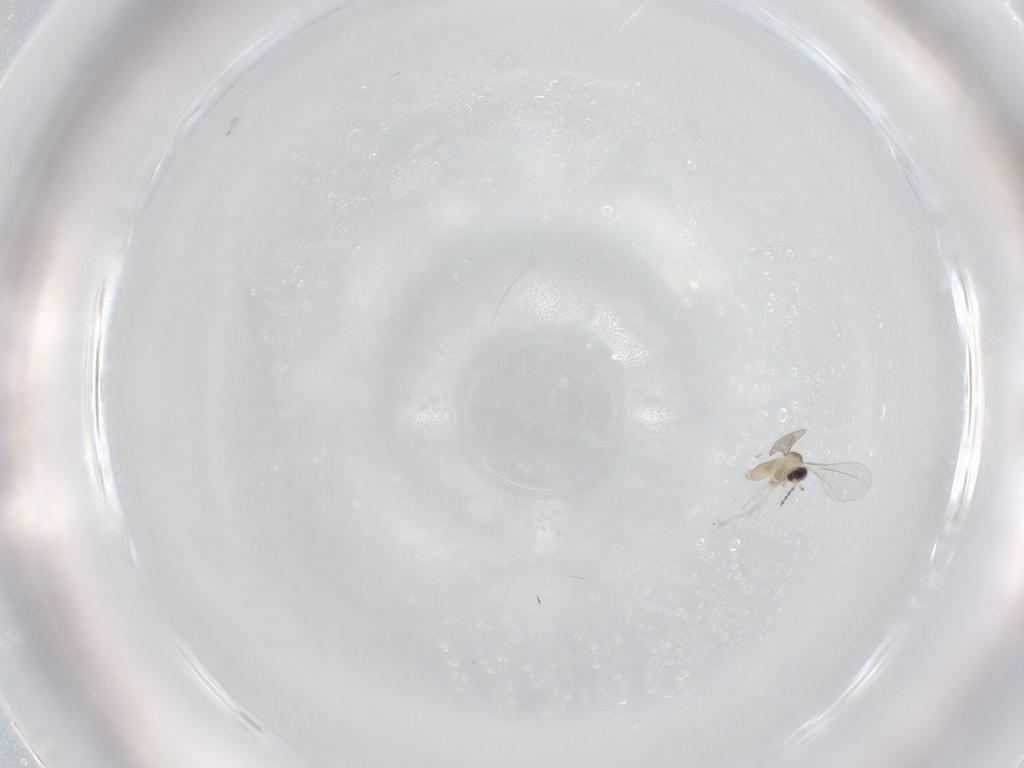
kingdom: Animalia
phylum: Arthropoda
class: Insecta
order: Diptera
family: Cecidomyiidae
